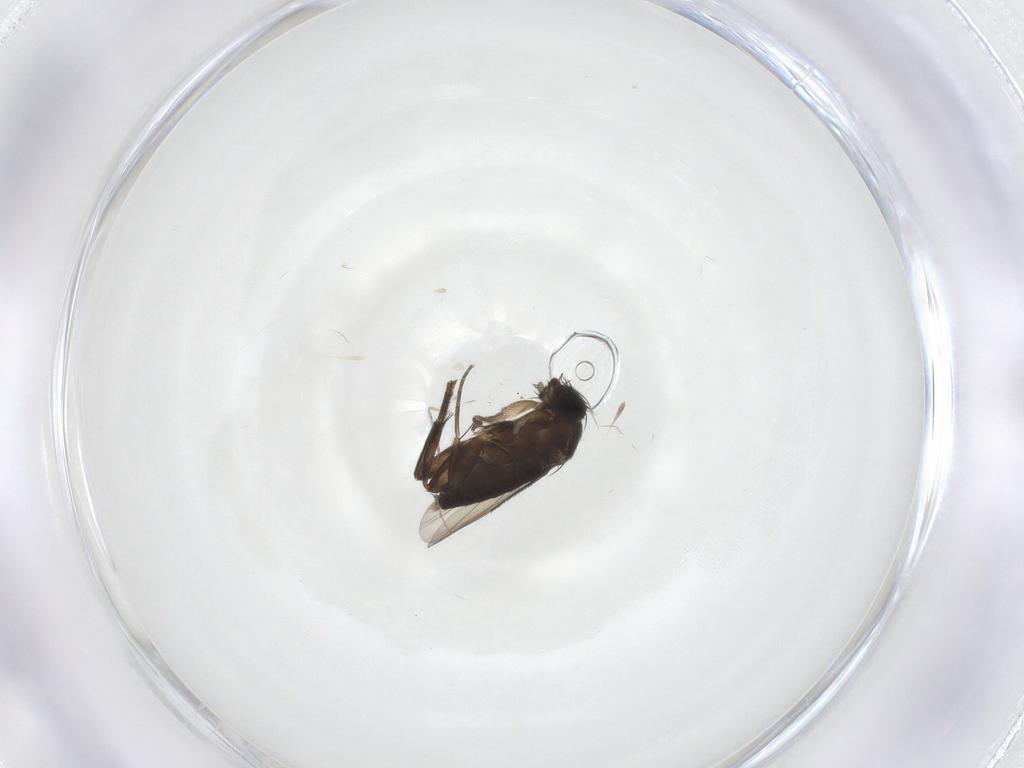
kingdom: Animalia
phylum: Arthropoda
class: Insecta
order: Diptera
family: Phoridae
